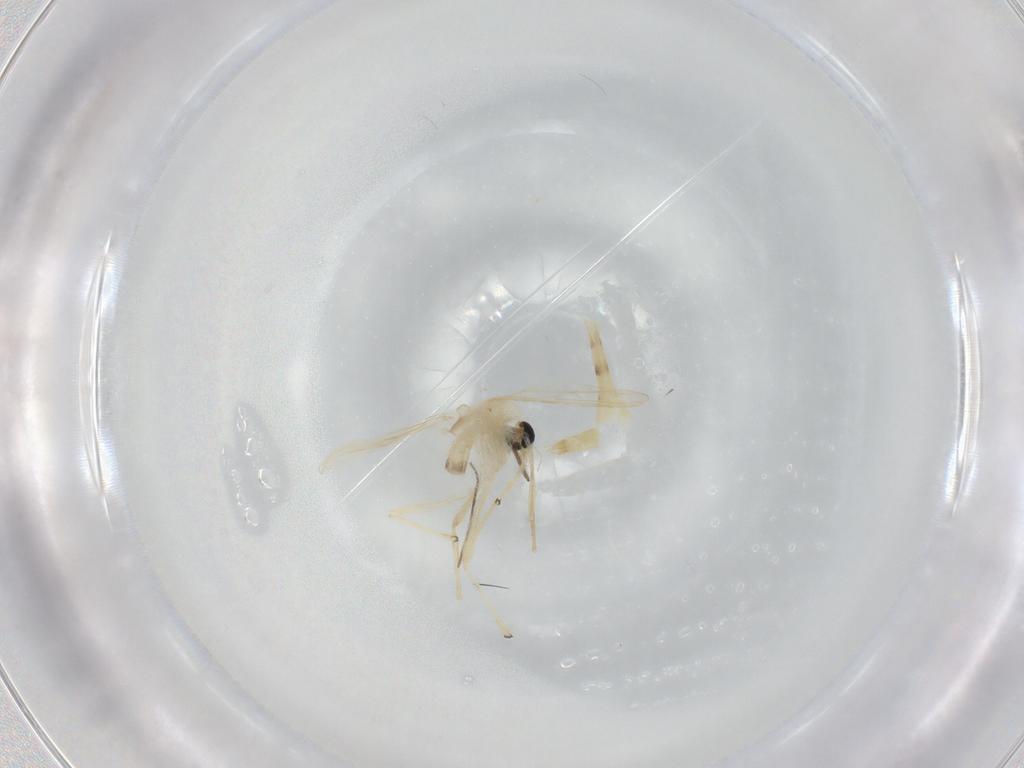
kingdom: Animalia
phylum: Arthropoda
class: Insecta
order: Diptera
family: Chironomidae
